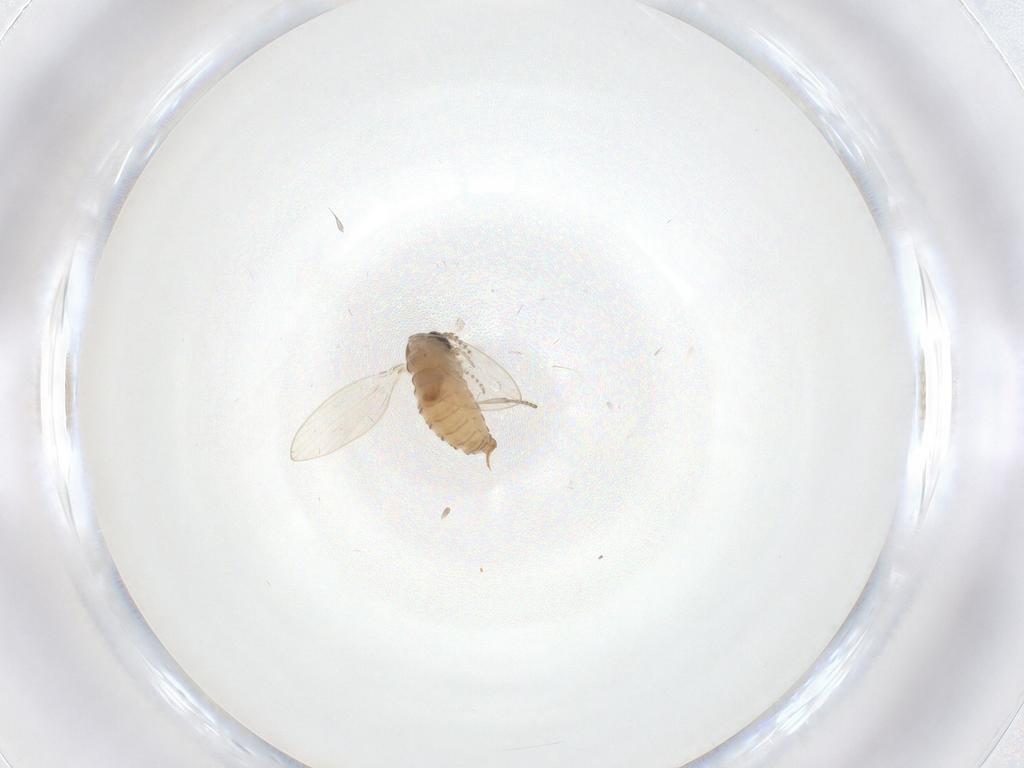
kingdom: Animalia
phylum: Arthropoda
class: Insecta
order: Diptera
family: Psychodidae
